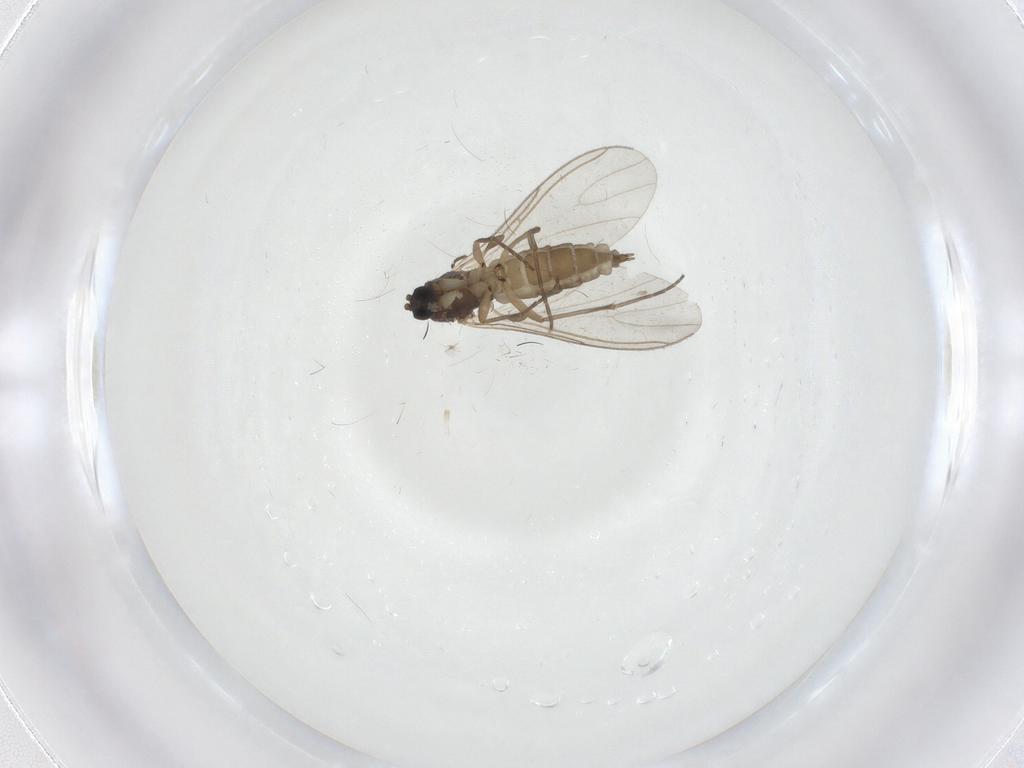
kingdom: Animalia
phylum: Arthropoda
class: Insecta
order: Diptera
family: Sciaridae
